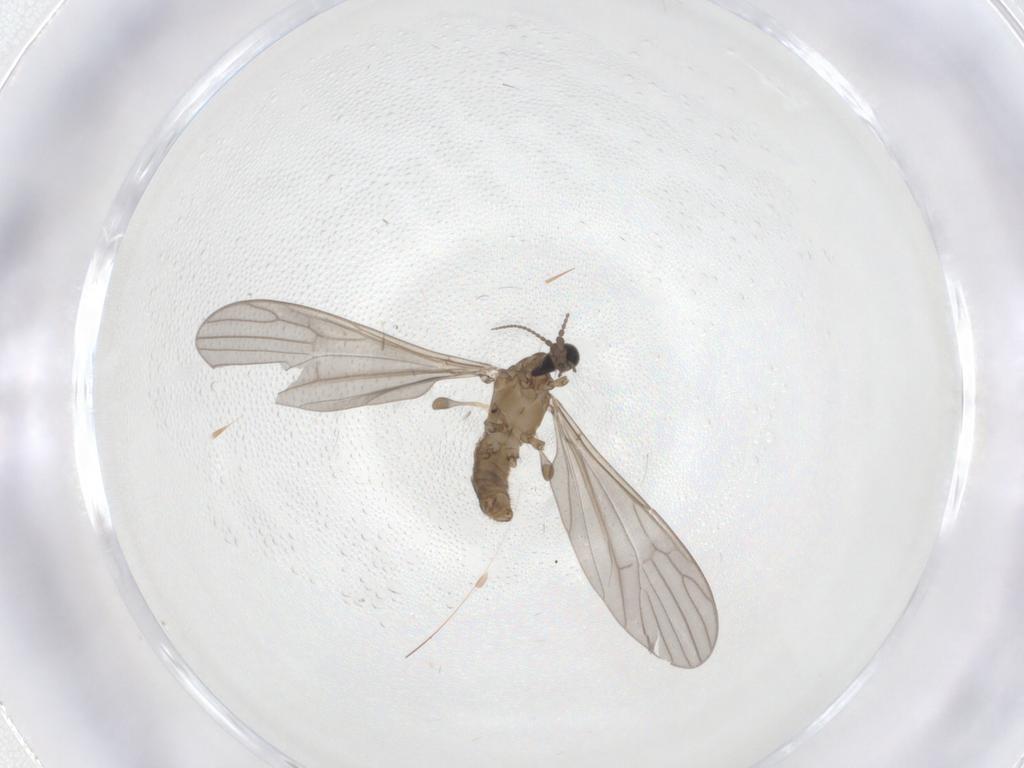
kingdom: Animalia
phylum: Arthropoda
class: Insecta
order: Diptera
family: Limoniidae
